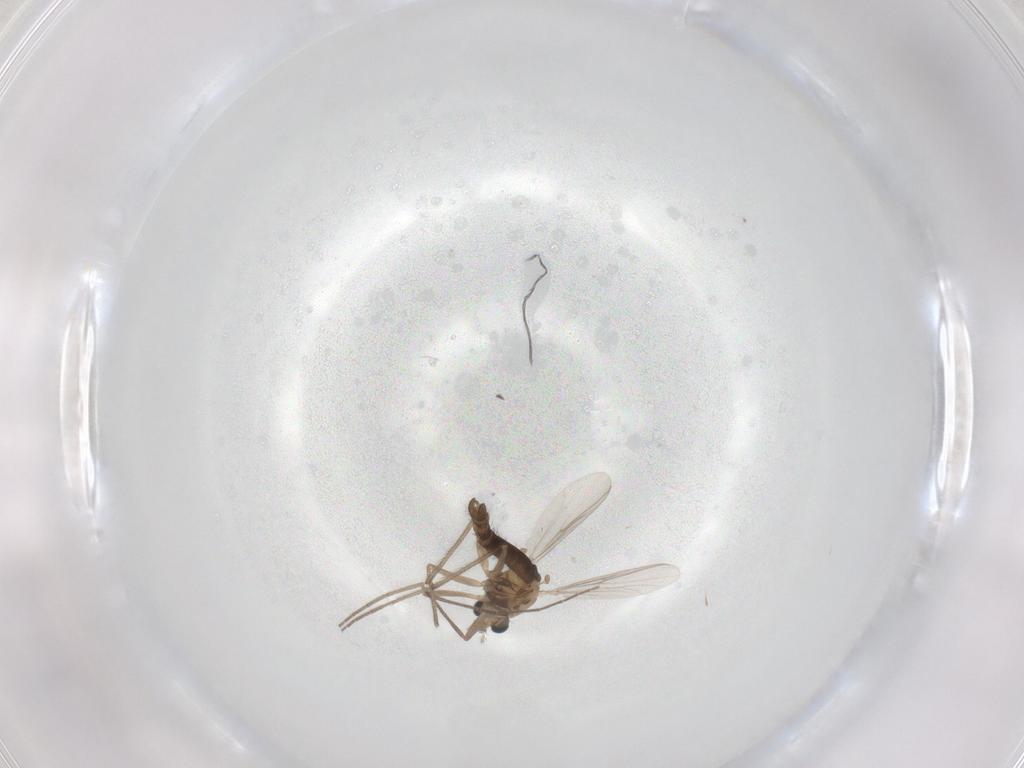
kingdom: Animalia
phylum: Arthropoda
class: Insecta
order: Diptera
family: Chironomidae
